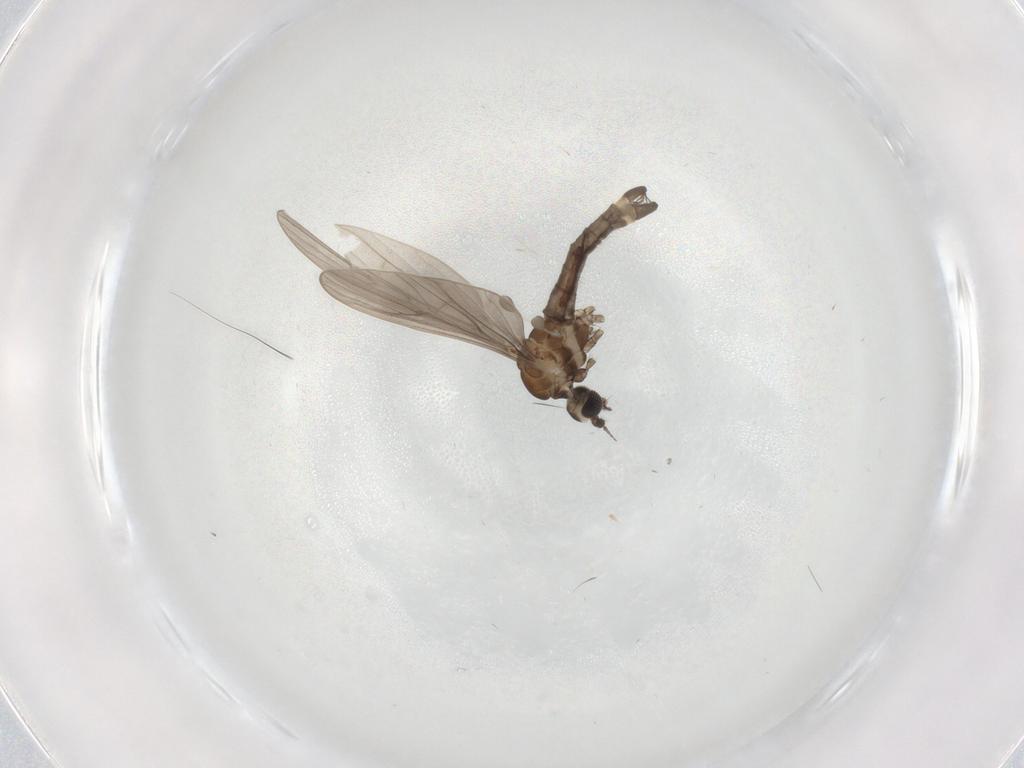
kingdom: Animalia
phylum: Arthropoda
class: Insecta
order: Diptera
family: Limoniidae
